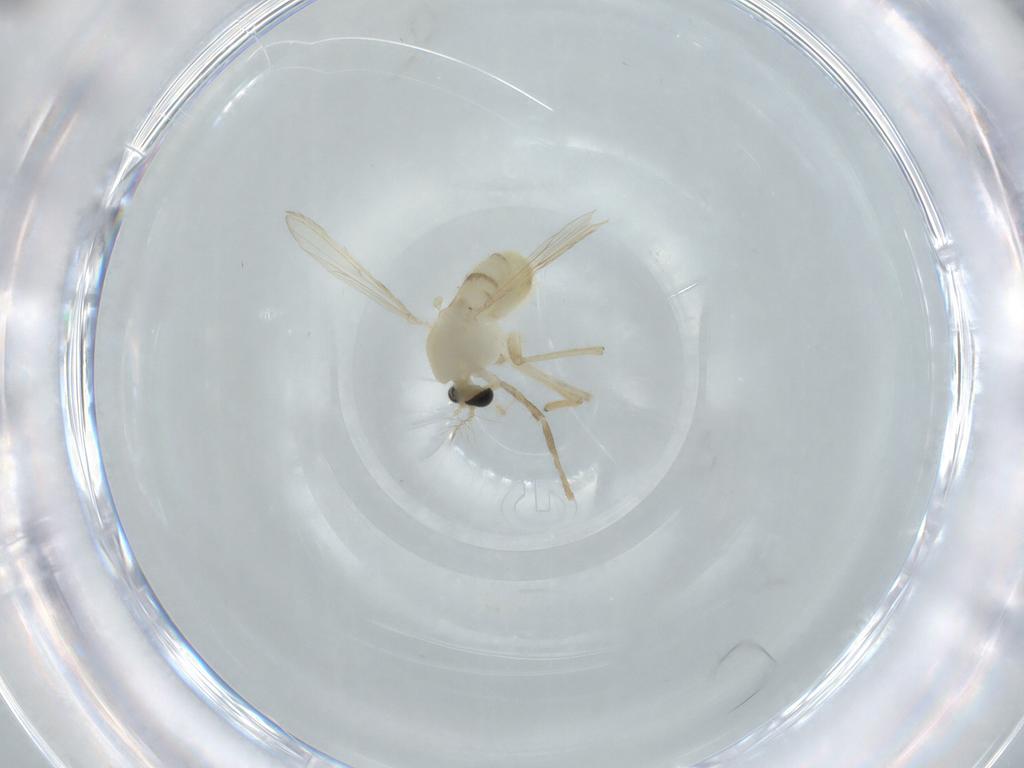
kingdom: Animalia
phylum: Arthropoda
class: Insecta
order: Diptera
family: Chironomidae
